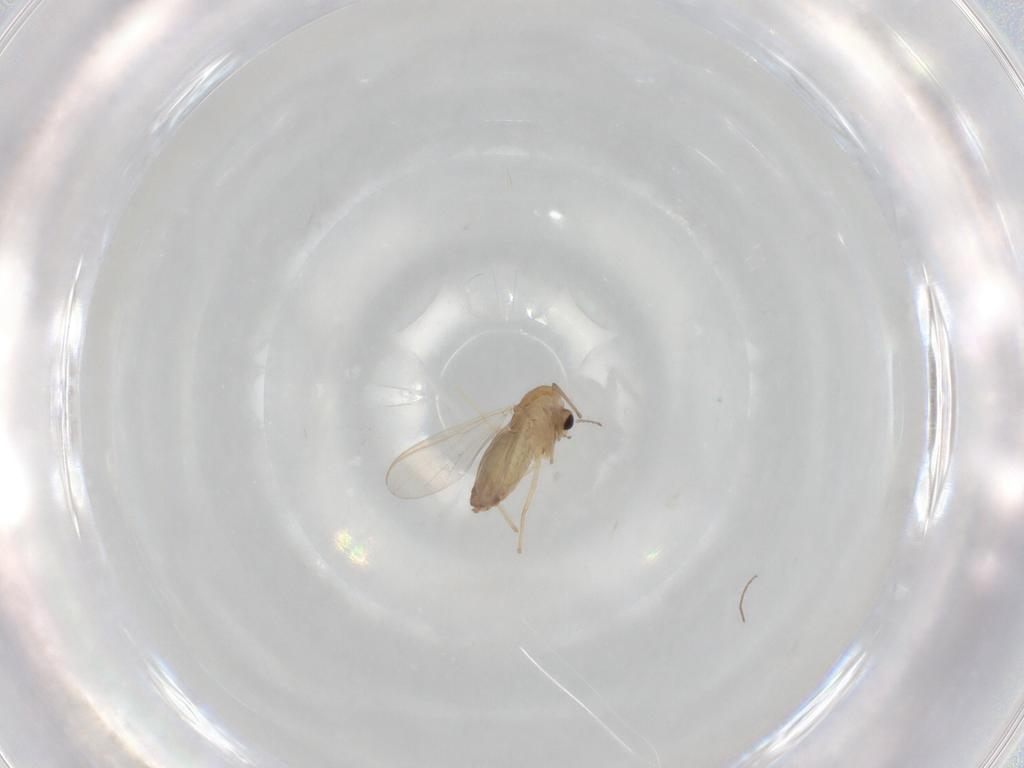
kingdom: Animalia
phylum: Arthropoda
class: Insecta
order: Diptera
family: Chironomidae
